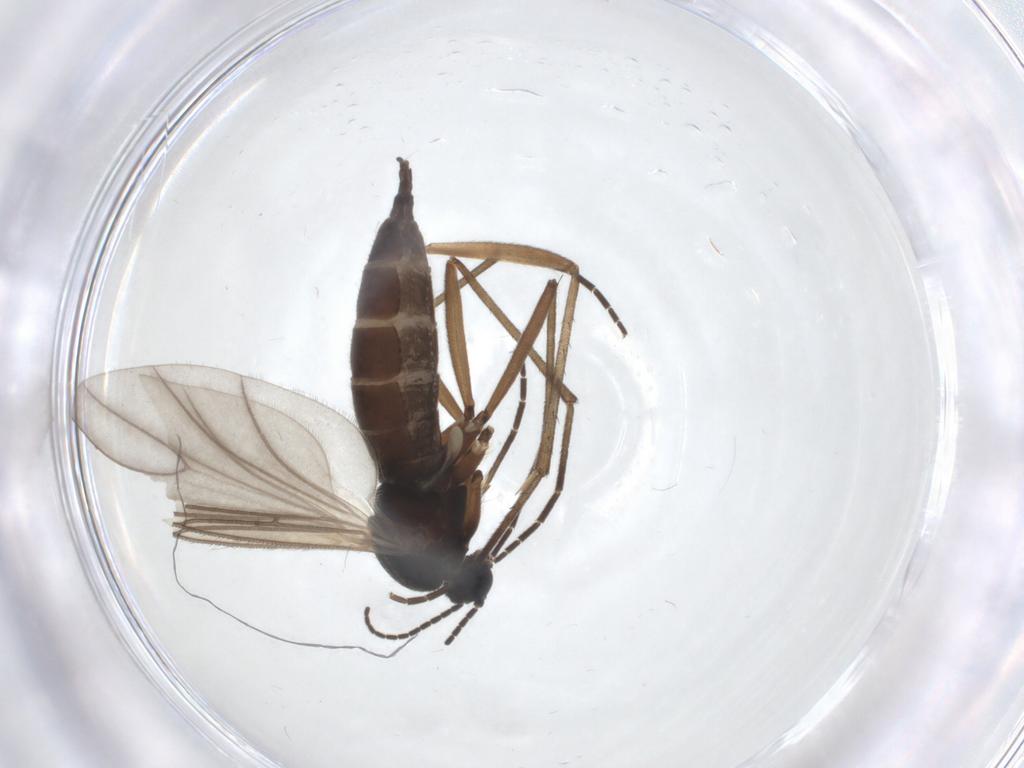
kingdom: Animalia
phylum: Arthropoda
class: Insecta
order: Diptera
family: Sciaridae
